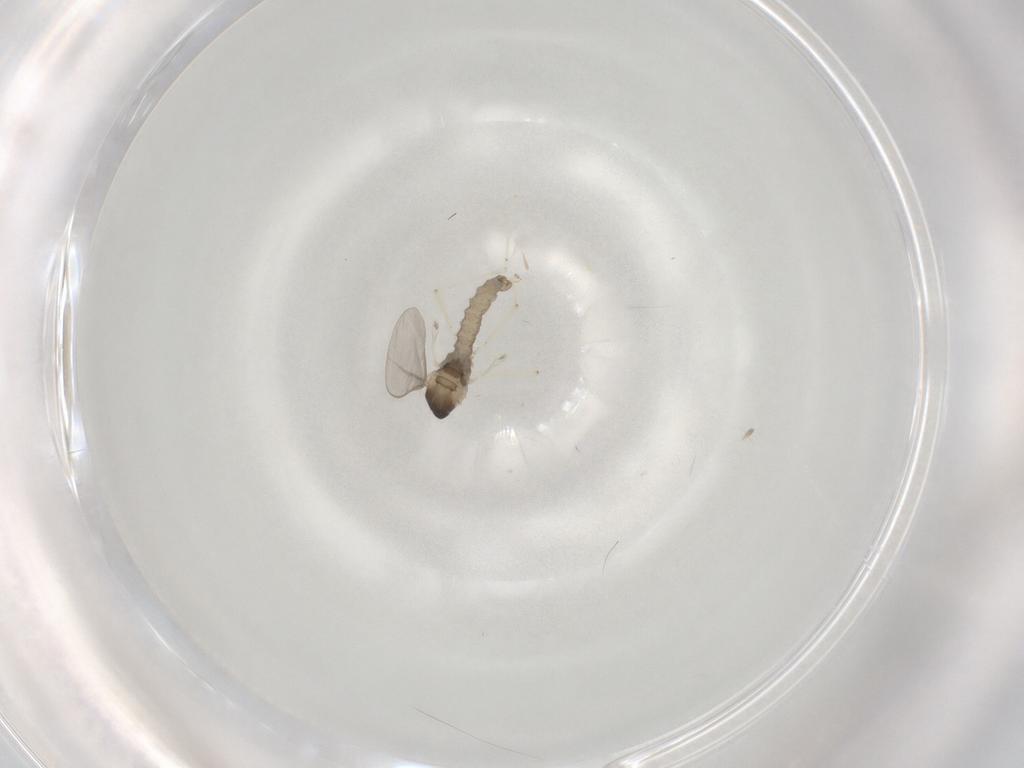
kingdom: Animalia
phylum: Arthropoda
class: Insecta
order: Diptera
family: Cecidomyiidae
